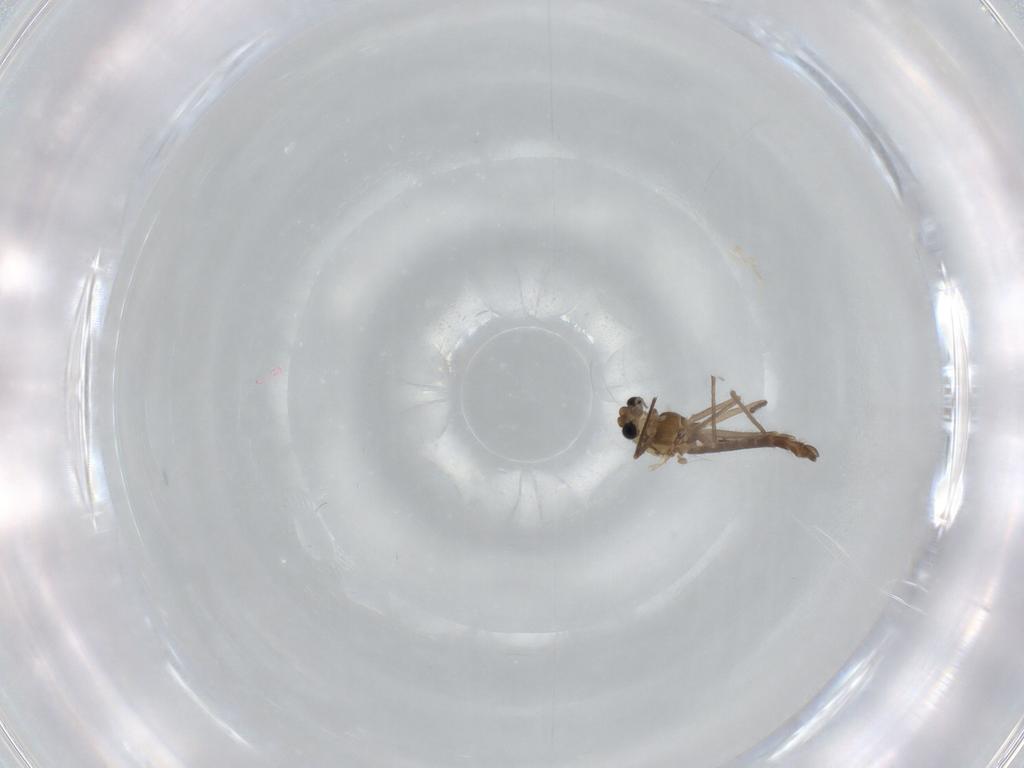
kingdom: Animalia
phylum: Arthropoda
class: Insecta
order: Diptera
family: Chironomidae
